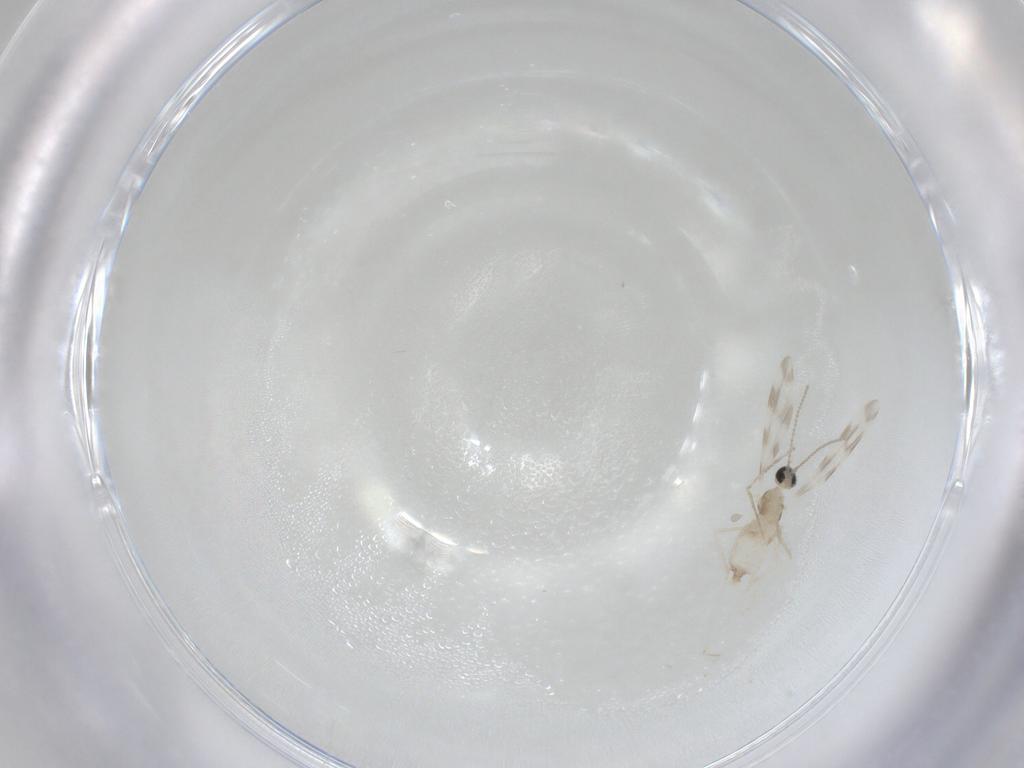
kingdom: Animalia
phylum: Arthropoda
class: Insecta
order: Diptera
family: Cecidomyiidae
